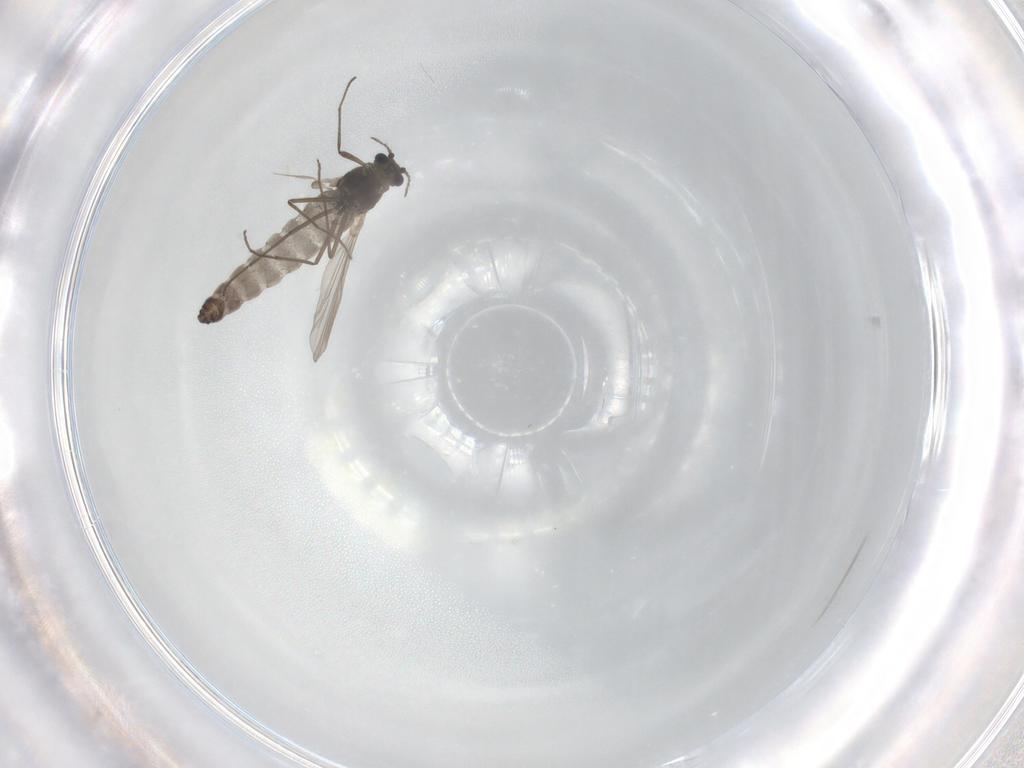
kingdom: Animalia
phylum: Arthropoda
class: Insecta
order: Diptera
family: Chironomidae
